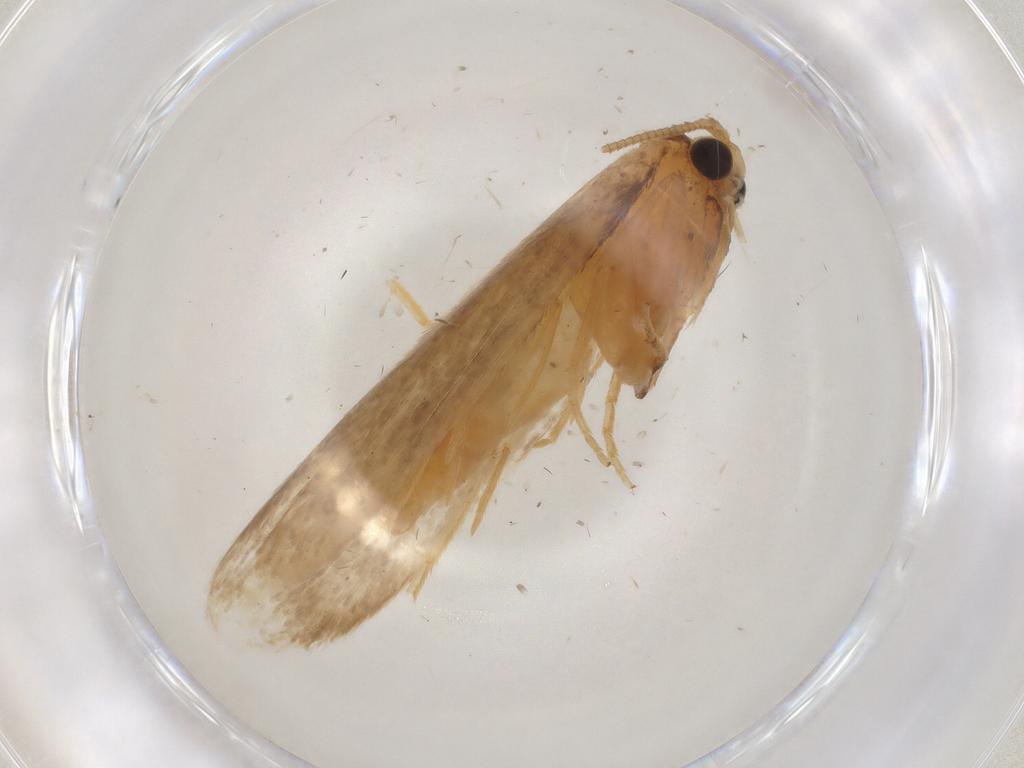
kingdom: Animalia
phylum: Arthropoda
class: Insecta
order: Lepidoptera
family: Tineidae
